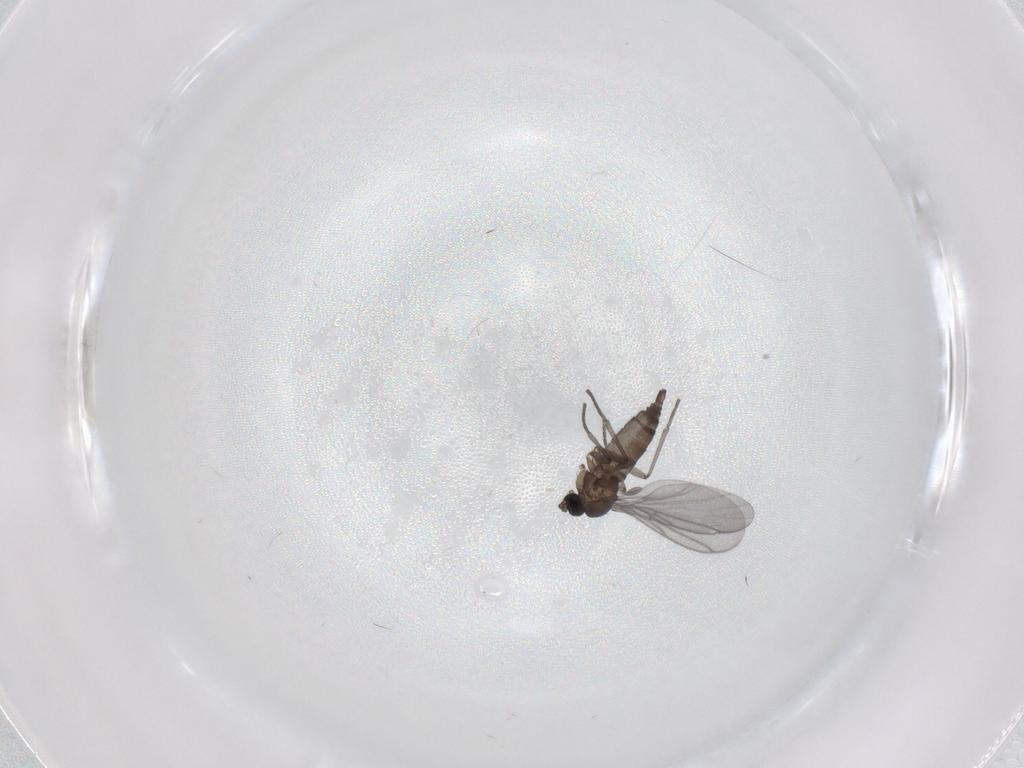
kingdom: Animalia
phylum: Arthropoda
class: Insecta
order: Diptera
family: Sciaridae
